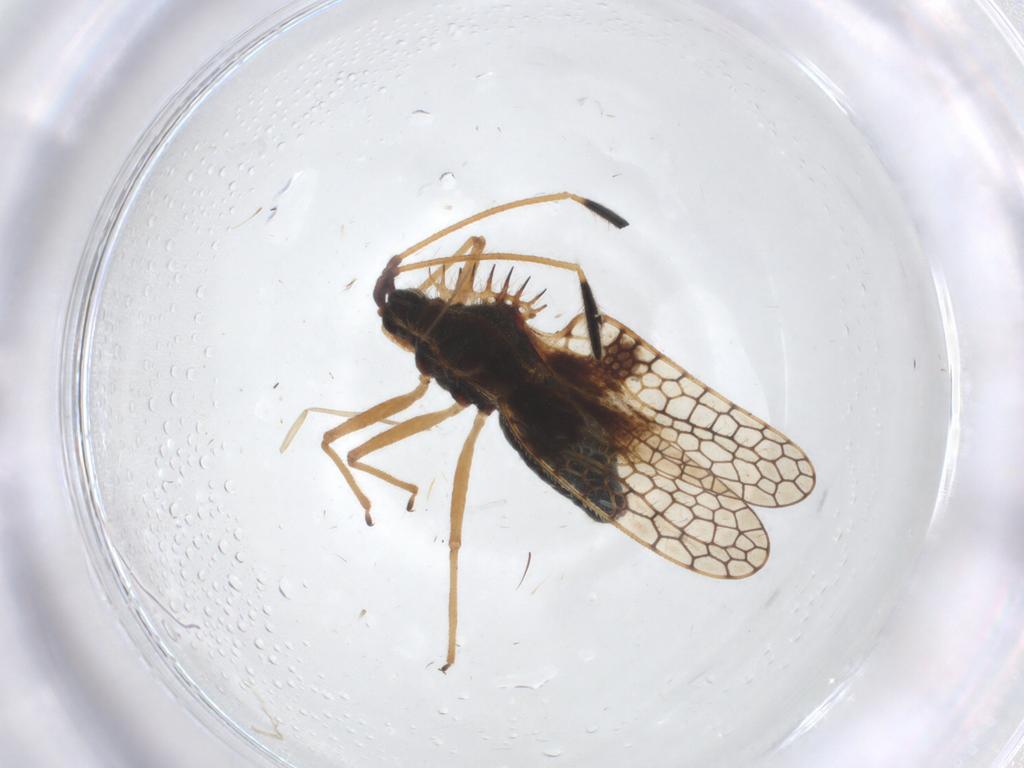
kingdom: Animalia
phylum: Arthropoda
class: Insecta
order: Hemiptera
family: Tingidae
